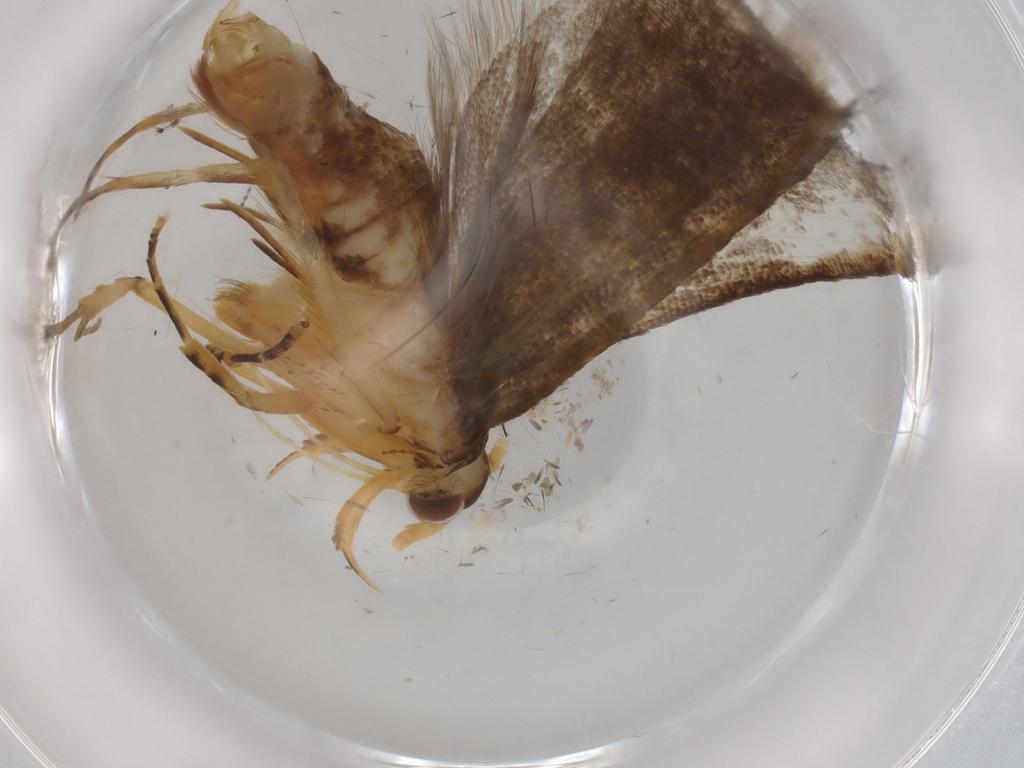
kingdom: Animalia
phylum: Arthropoda
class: Insecta
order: Lepidoptera
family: Lecithoceridae
